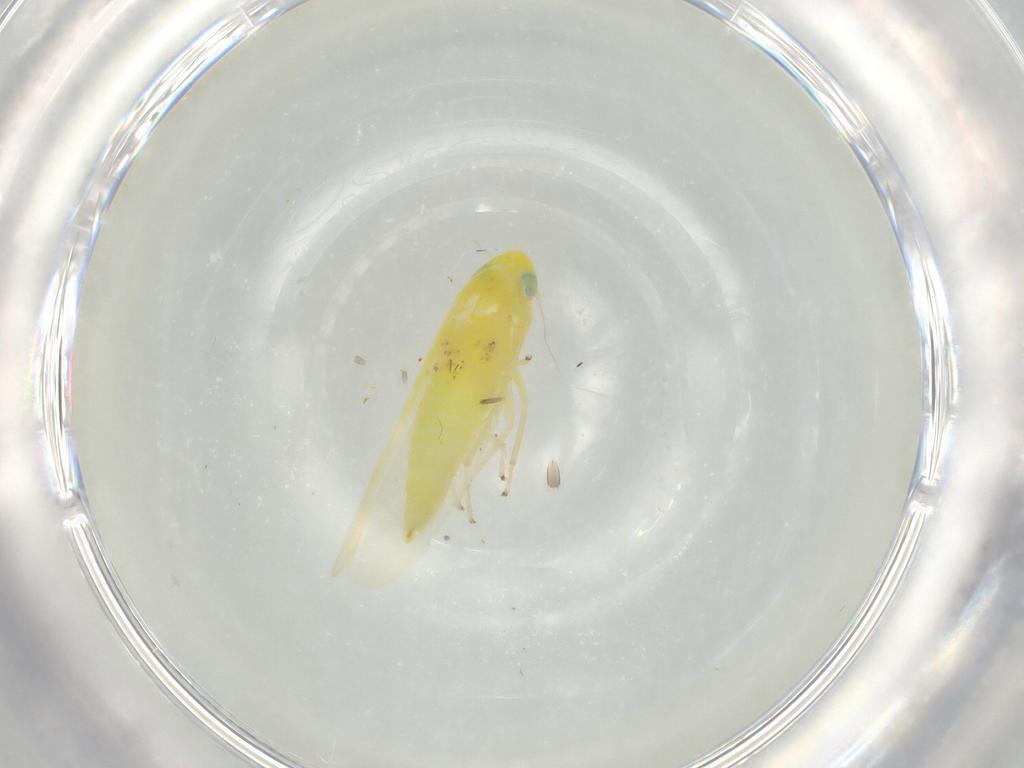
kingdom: Animalia
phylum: Arthropoda
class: Insecta
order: Hemiptera
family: Cicadellidae
